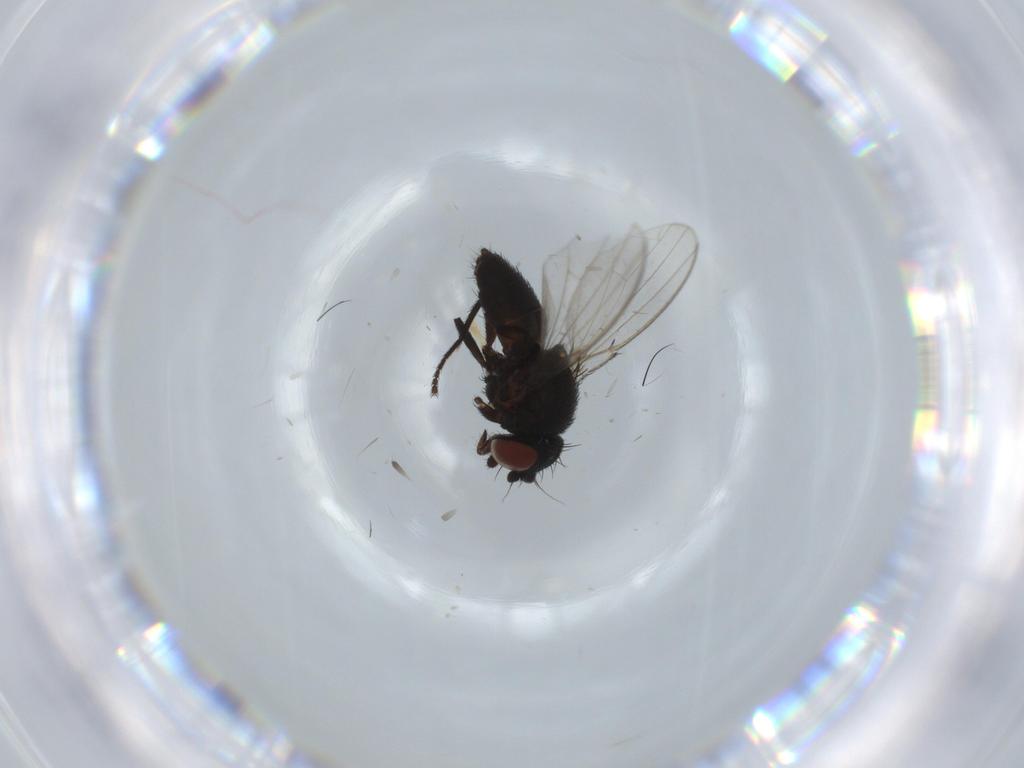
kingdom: Animalia
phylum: Arthropoda
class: Insecta
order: Diptera
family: Milichiidae
